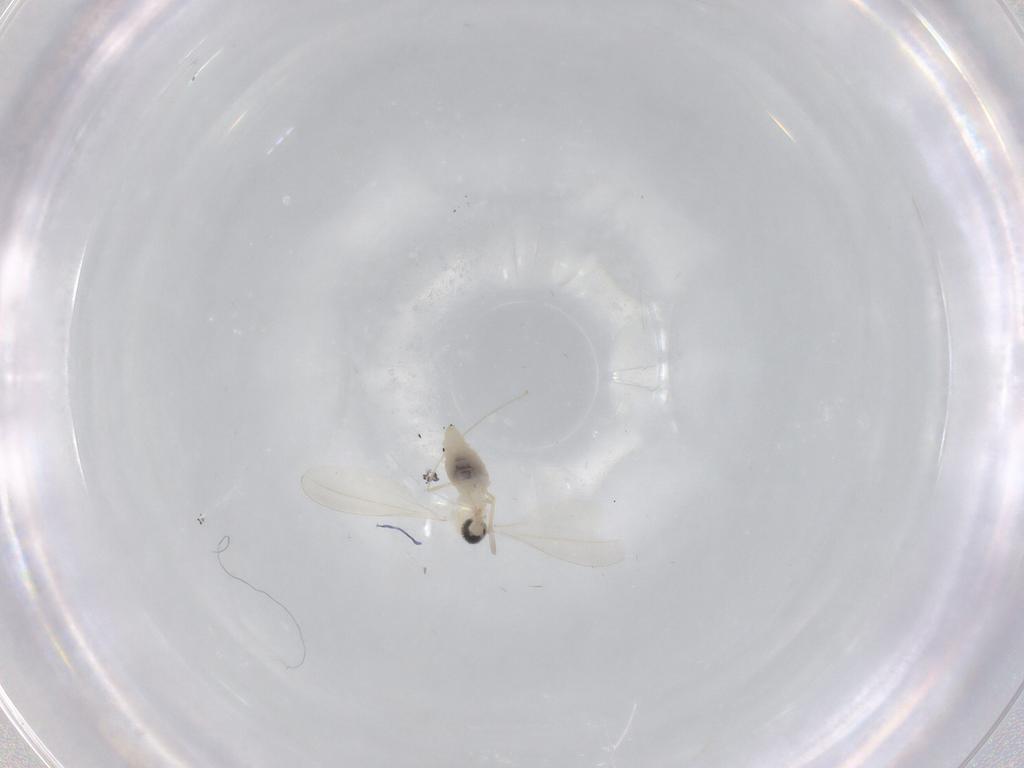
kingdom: Animalia
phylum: Arthropoda
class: Insecta
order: Diptera
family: Cecidomyiidae
